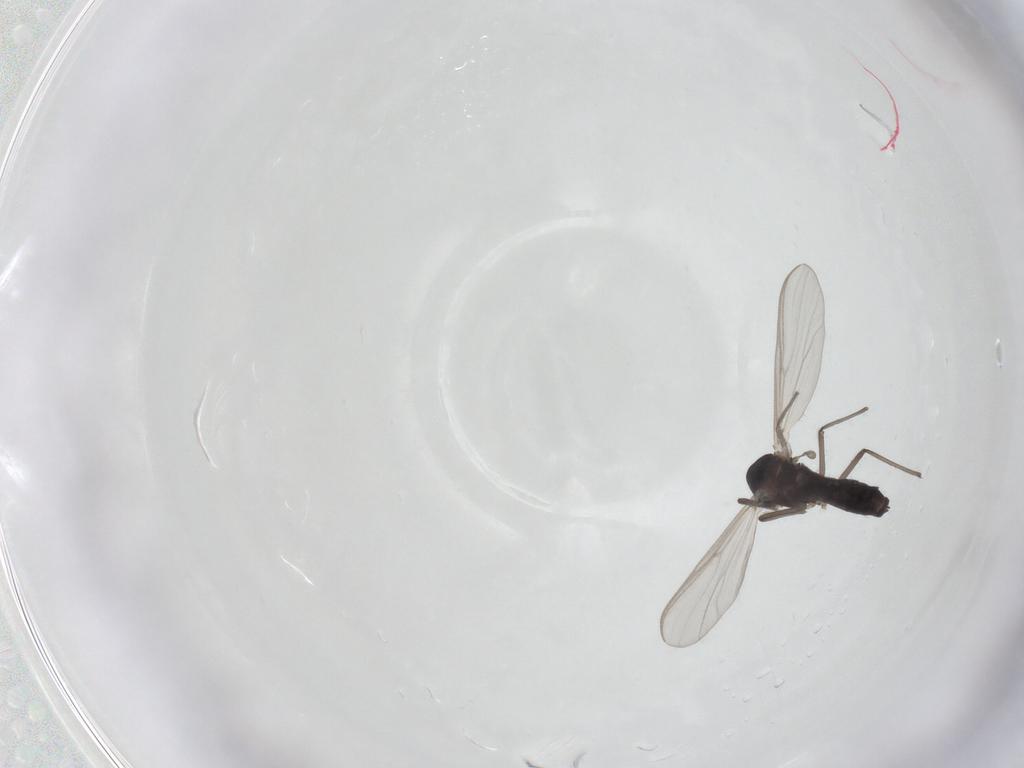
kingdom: Animalia
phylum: Arthropoda
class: Insecta
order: Diptera
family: Chironomidae
